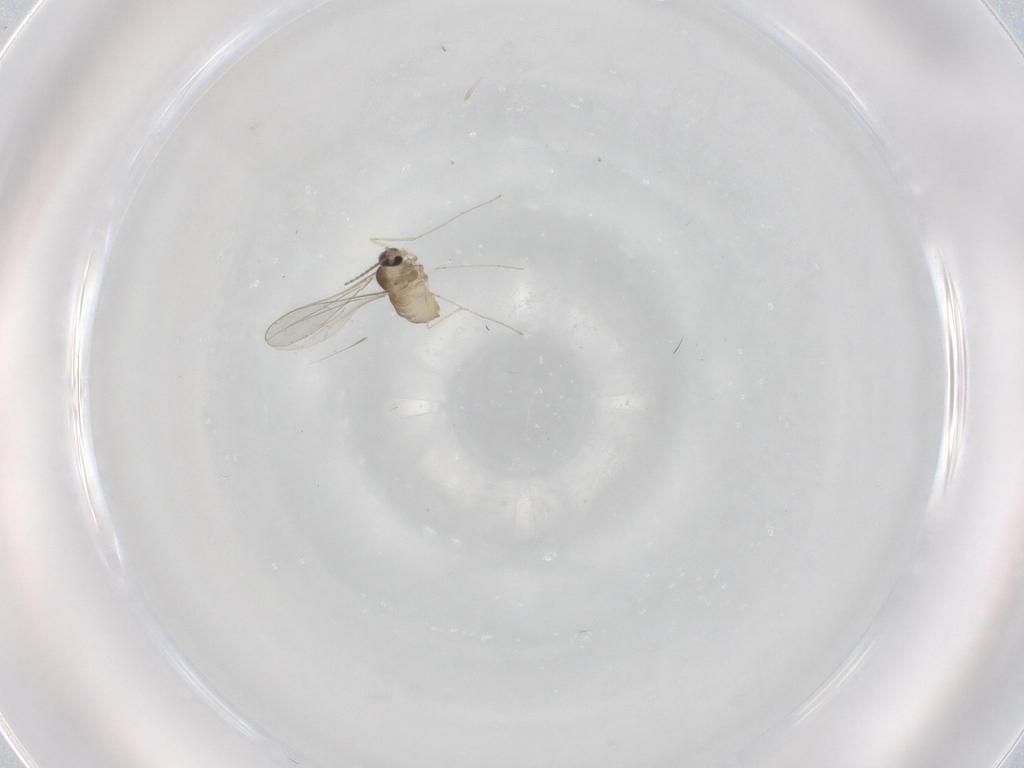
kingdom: Animalia
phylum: Arthropoda
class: Insecta
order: Diptera
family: Cecidomyiidae
